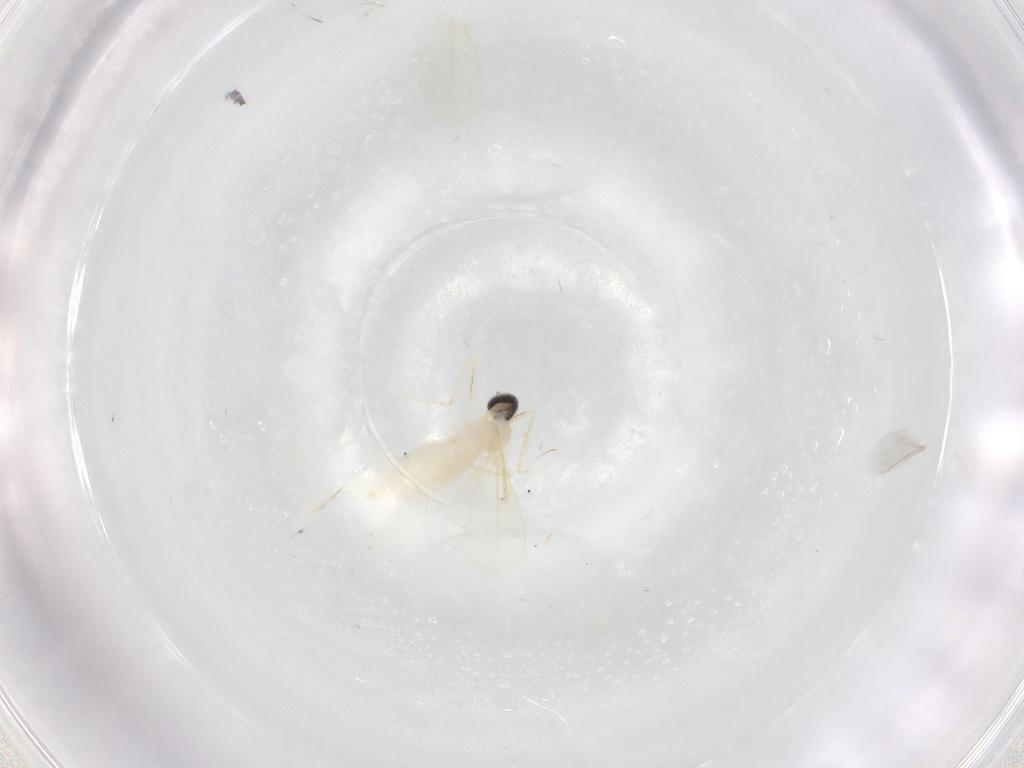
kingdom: Animalia
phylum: Arthropoda
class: Insecta
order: Diptera
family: Cecidomyiidae
